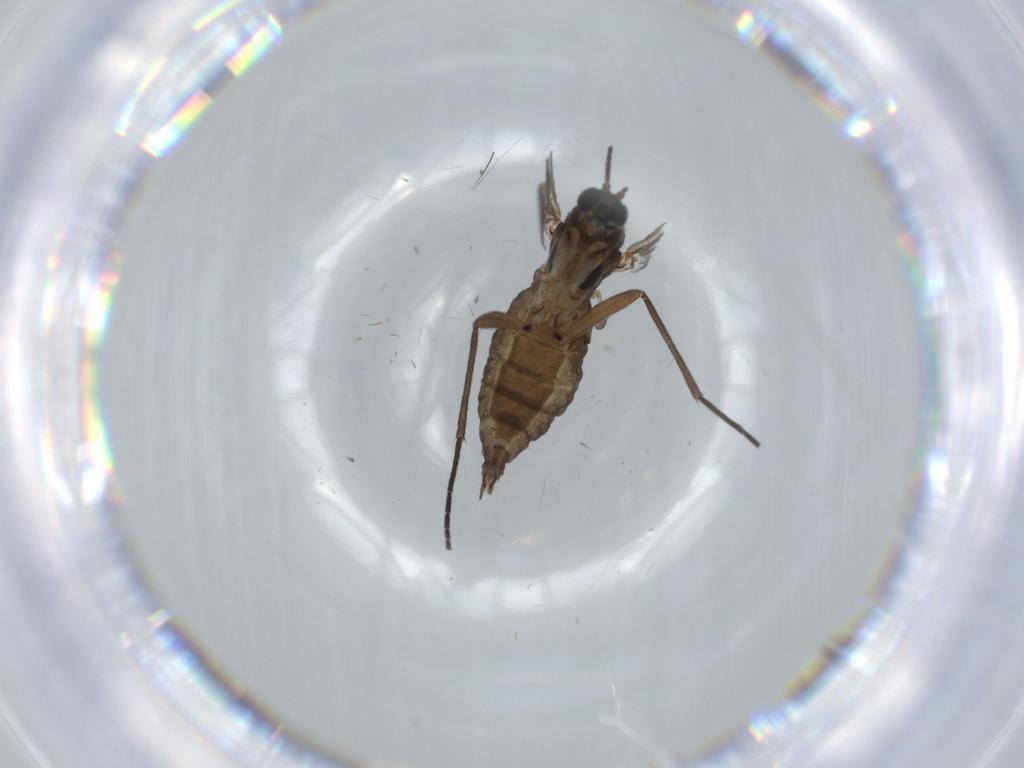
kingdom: Animalia
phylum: Arthropoda
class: Insecta
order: Diptera
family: Sciaridae
